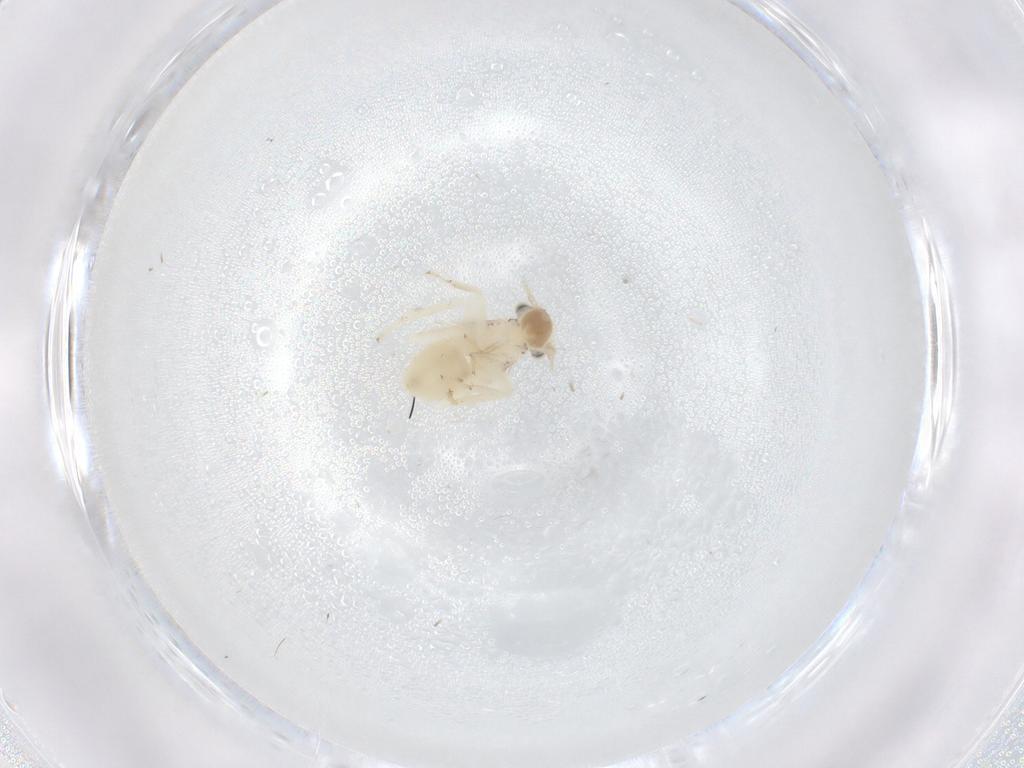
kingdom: Animalia
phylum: Arthropoda
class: Insecta
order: Psocodea
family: Lepidopsocidae
